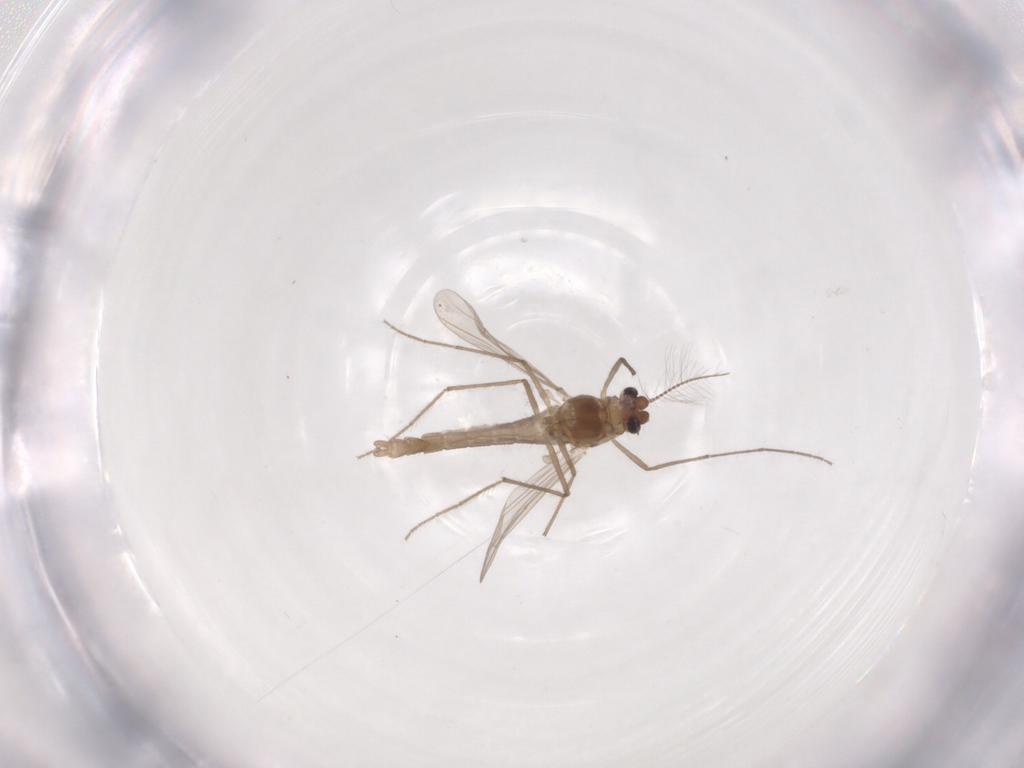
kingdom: Animalia
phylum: Arthropoda
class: Insecta
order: Diptera
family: Chironomidae
